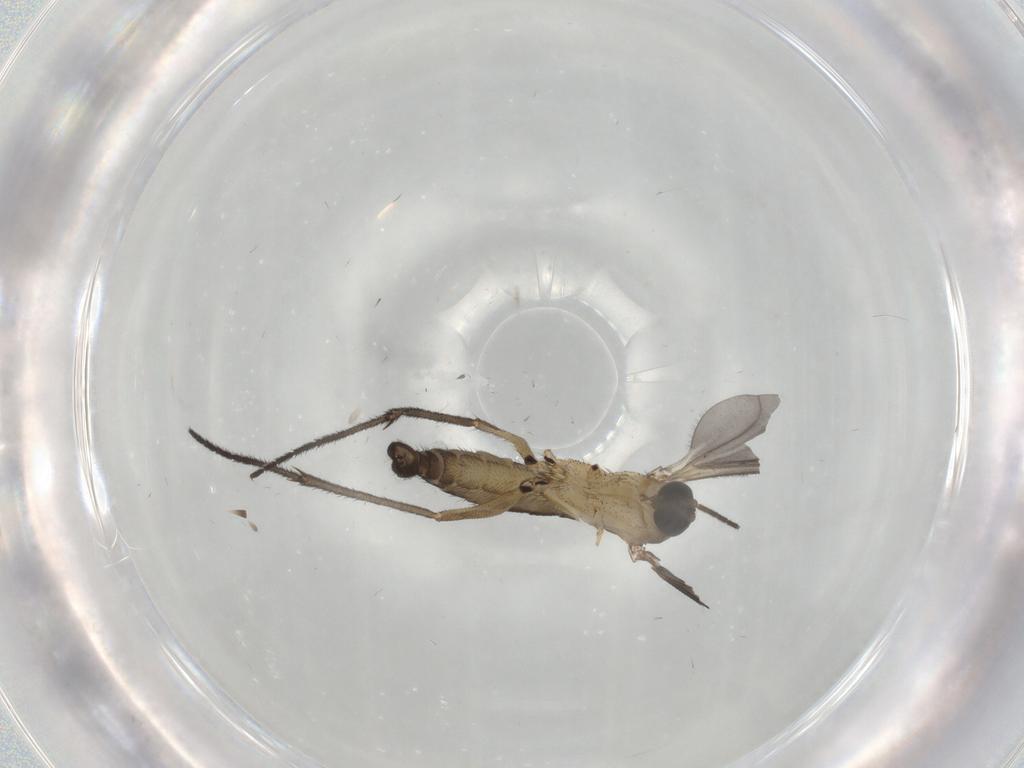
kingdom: Animalia
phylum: Arthropoda
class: Insecta
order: Diptera
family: Sciaridae
